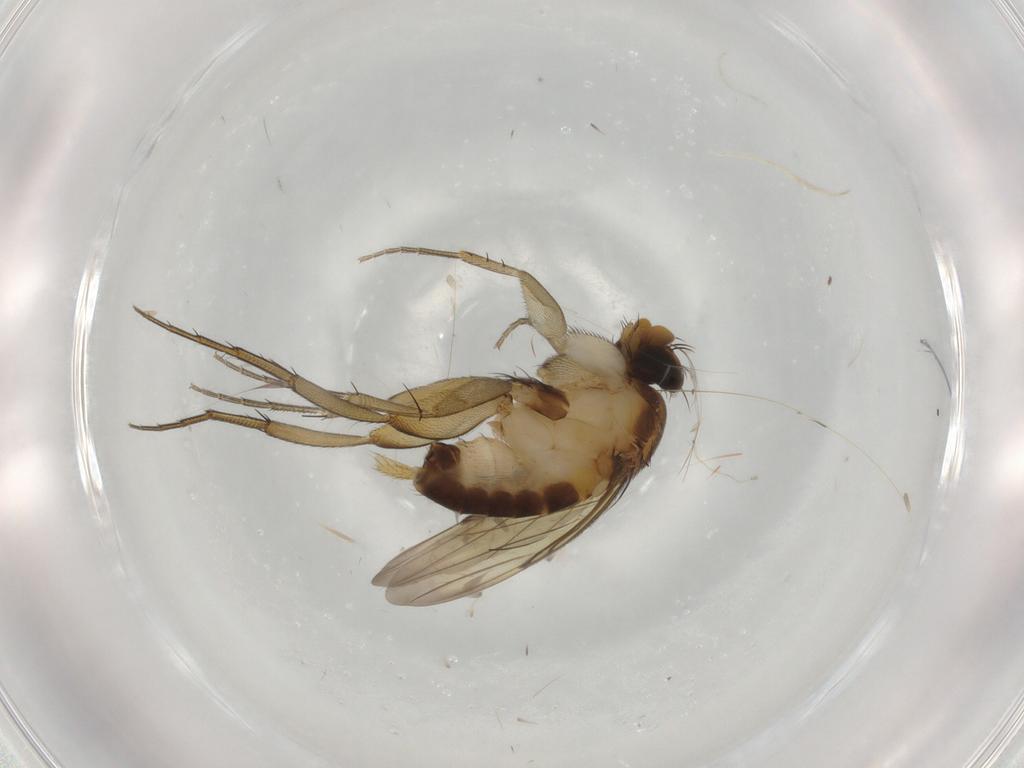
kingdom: Animalia
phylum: Arthropoda
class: Insecta
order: Diptera
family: Phoridae
